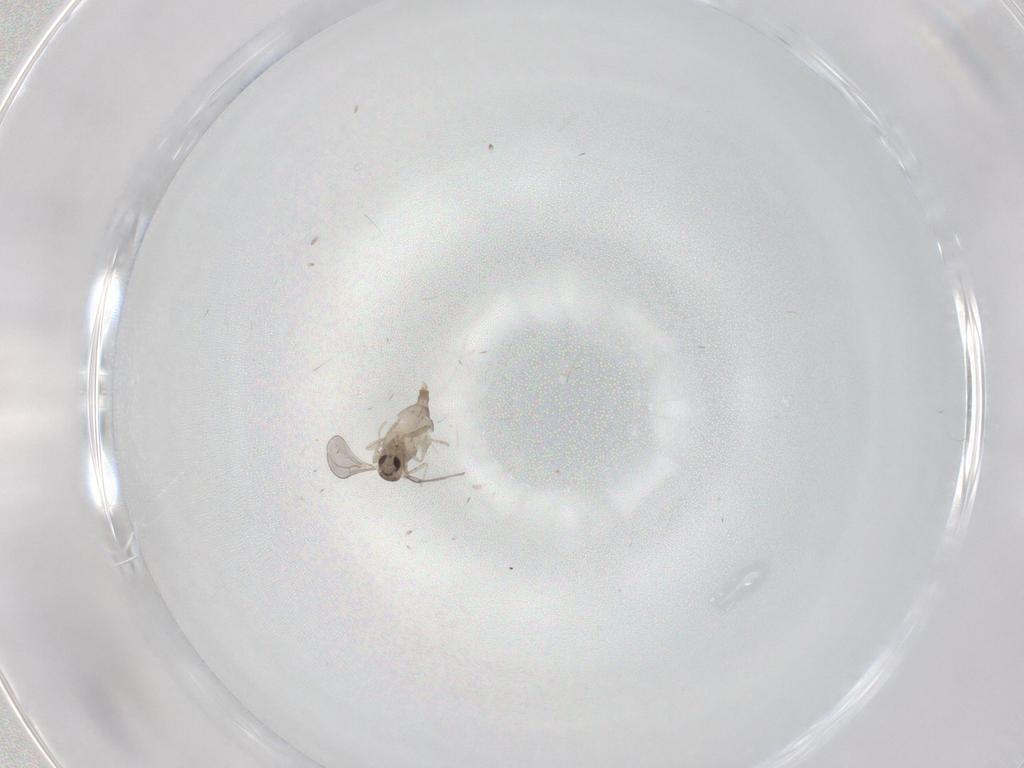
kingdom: Animalia
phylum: Arthropoda
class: Insecta
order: Diptera
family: Cecidomyiidae
